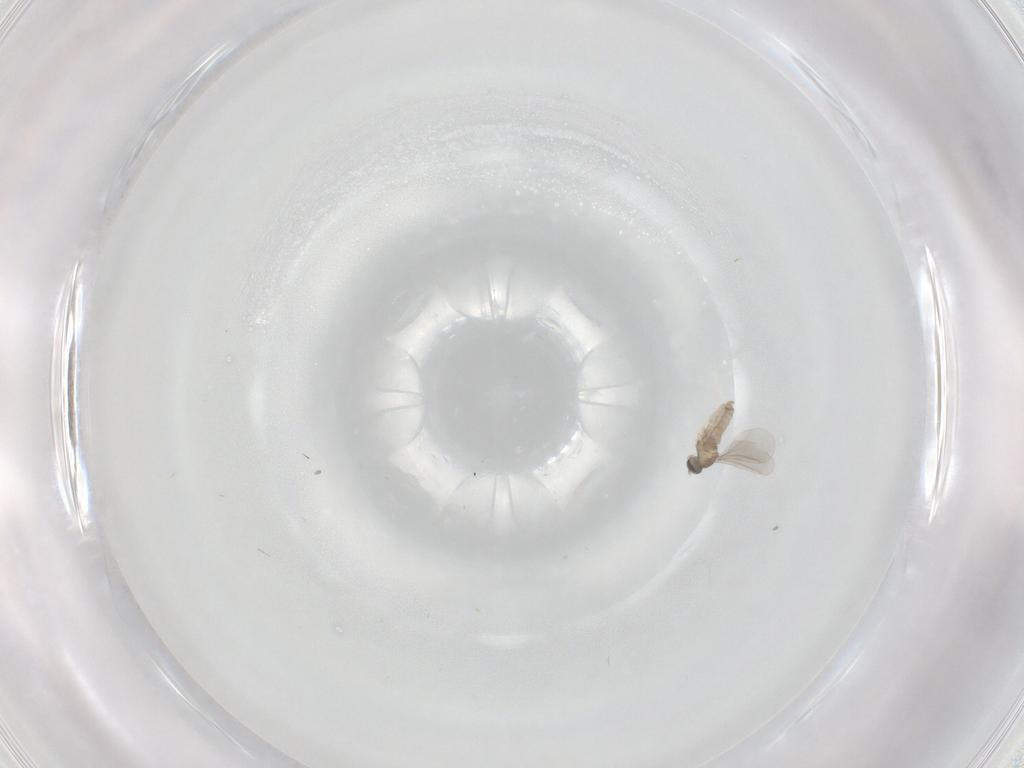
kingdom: Animalia
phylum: Arthropoda
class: Insecta
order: Diptera
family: Cecidomyiidae
